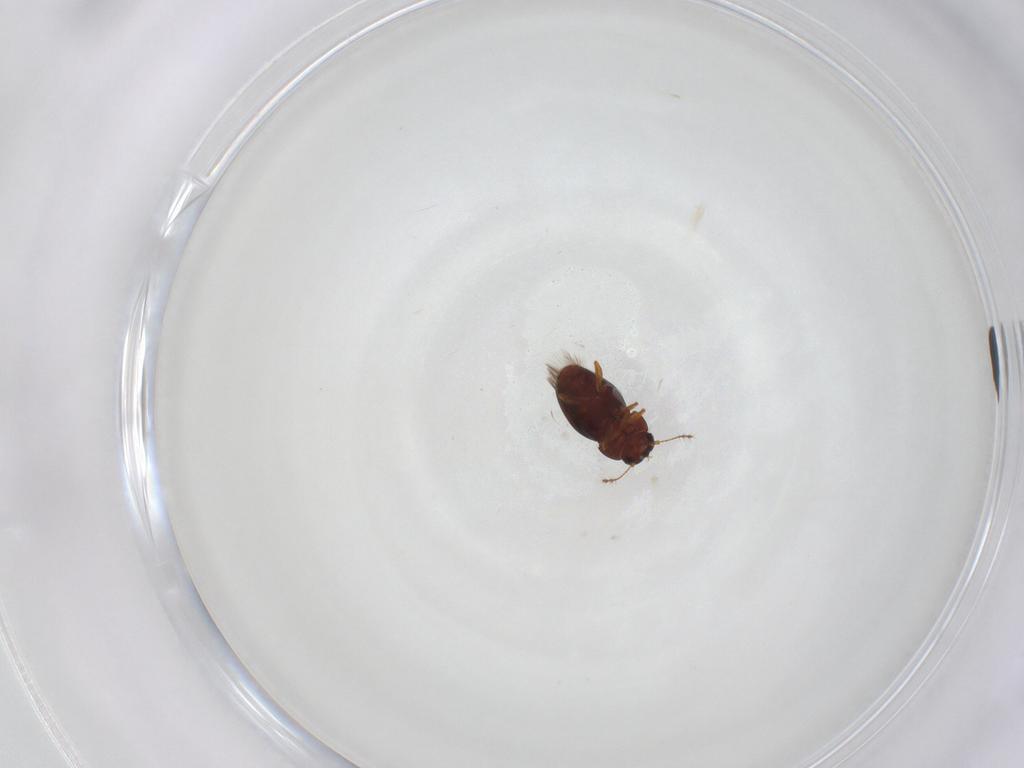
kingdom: Animalia
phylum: Arthropoda
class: Insecta
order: Coleoptera
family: Ptiliidae
